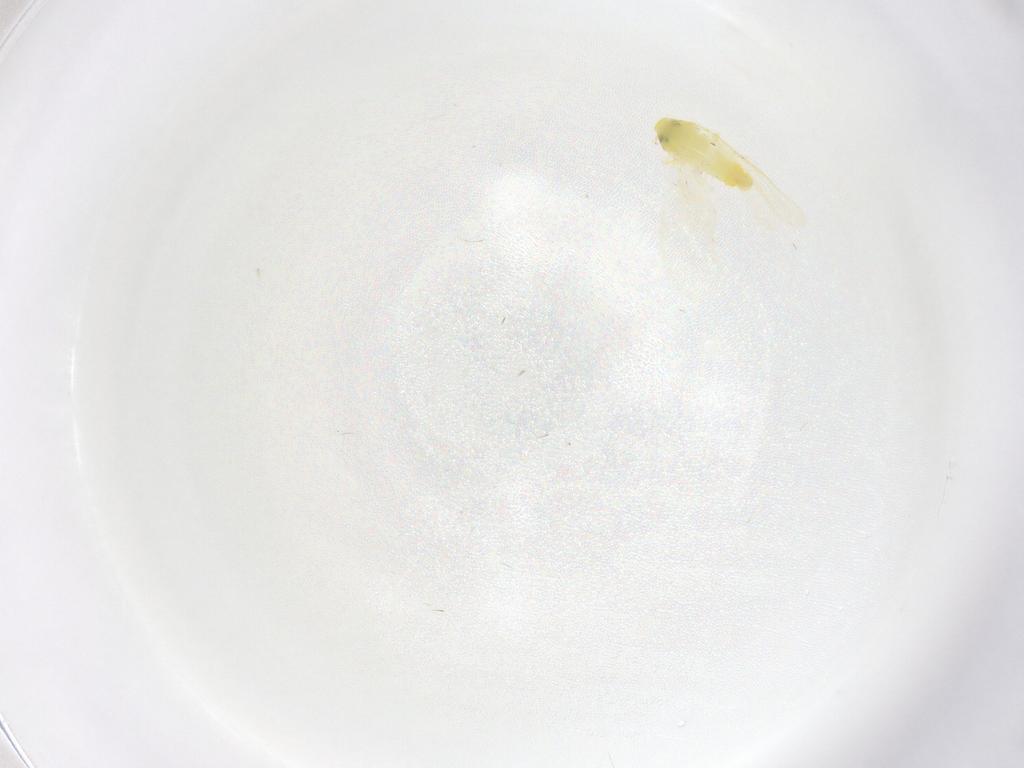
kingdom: Animalia
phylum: Arthropoda
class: Insecta
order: Hemiptera
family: Aleyrodidae
